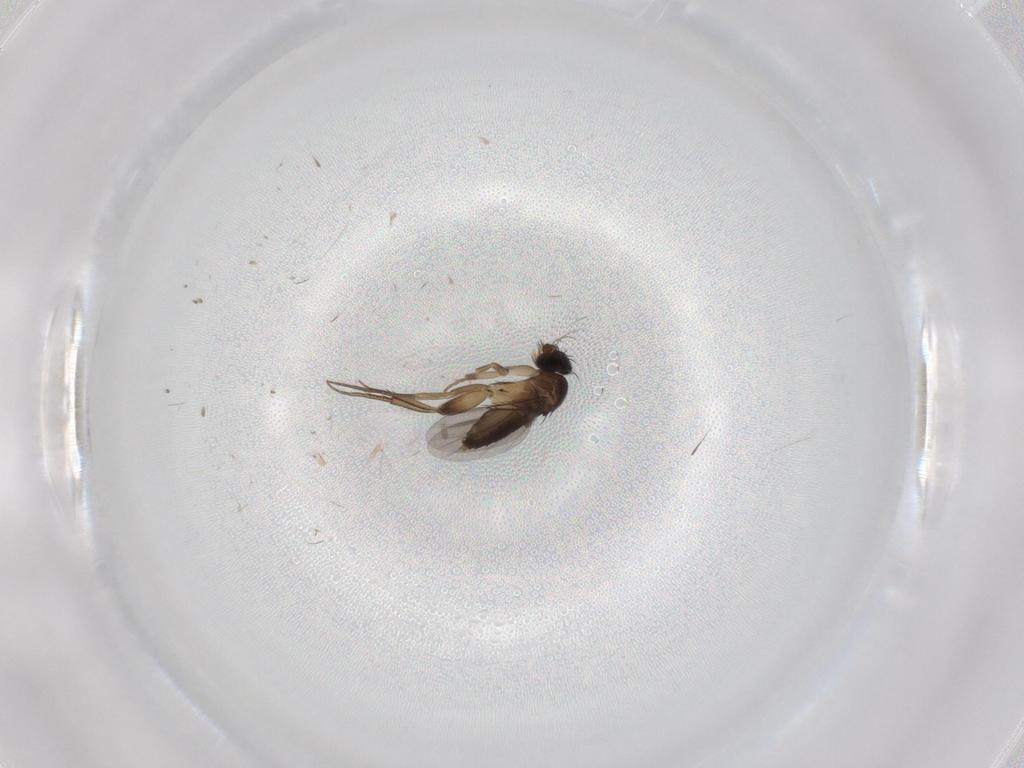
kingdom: Animalia
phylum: Arthropoda
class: Insecta
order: Diptera
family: Phoridae
